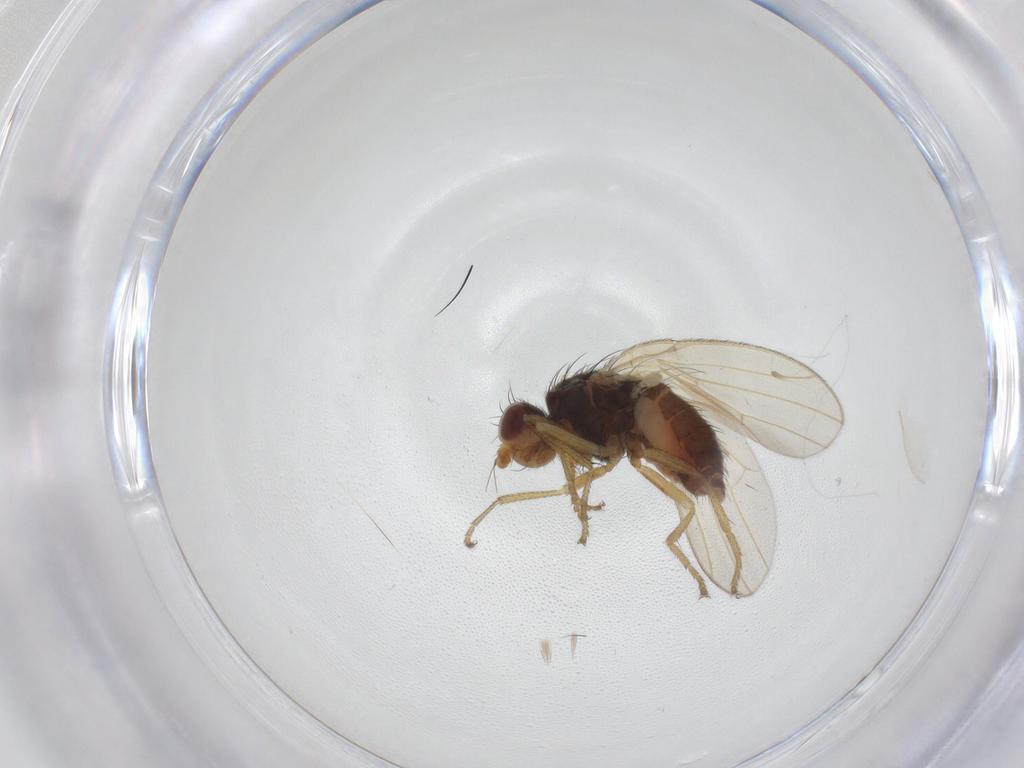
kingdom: Animalia
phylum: Arthropoda
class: Insecta
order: Diptera
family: Heleomyzidae
